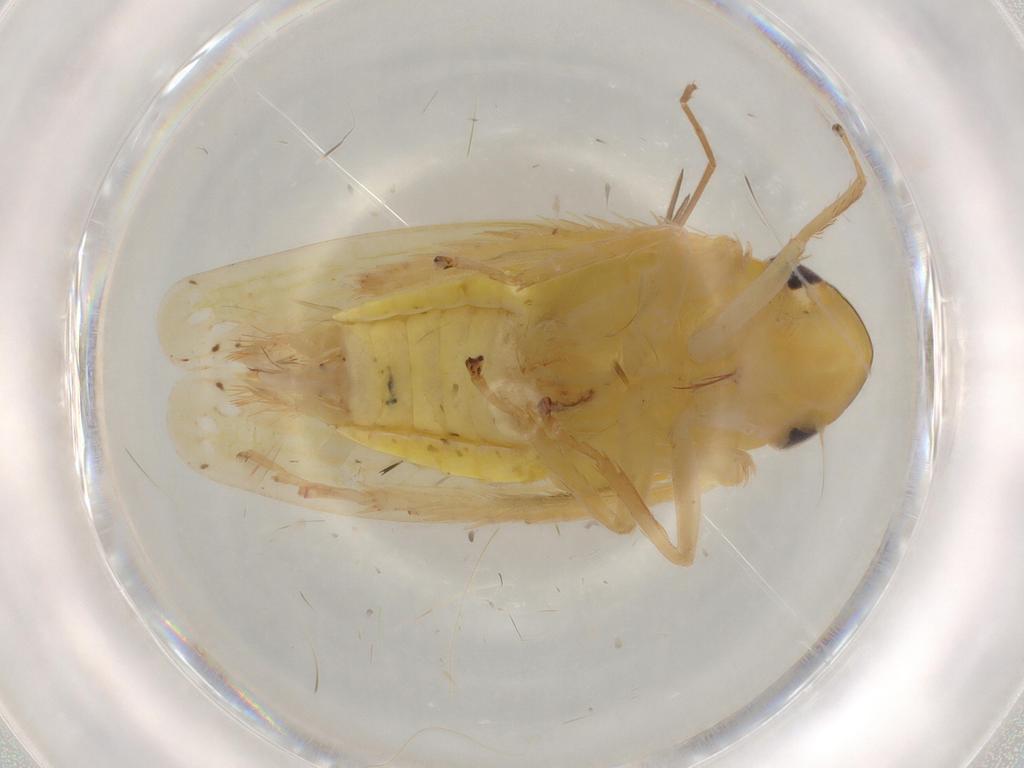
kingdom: Animalia
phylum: Arthropoda
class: Insecta
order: Hemiptera
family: Cicadellidae
